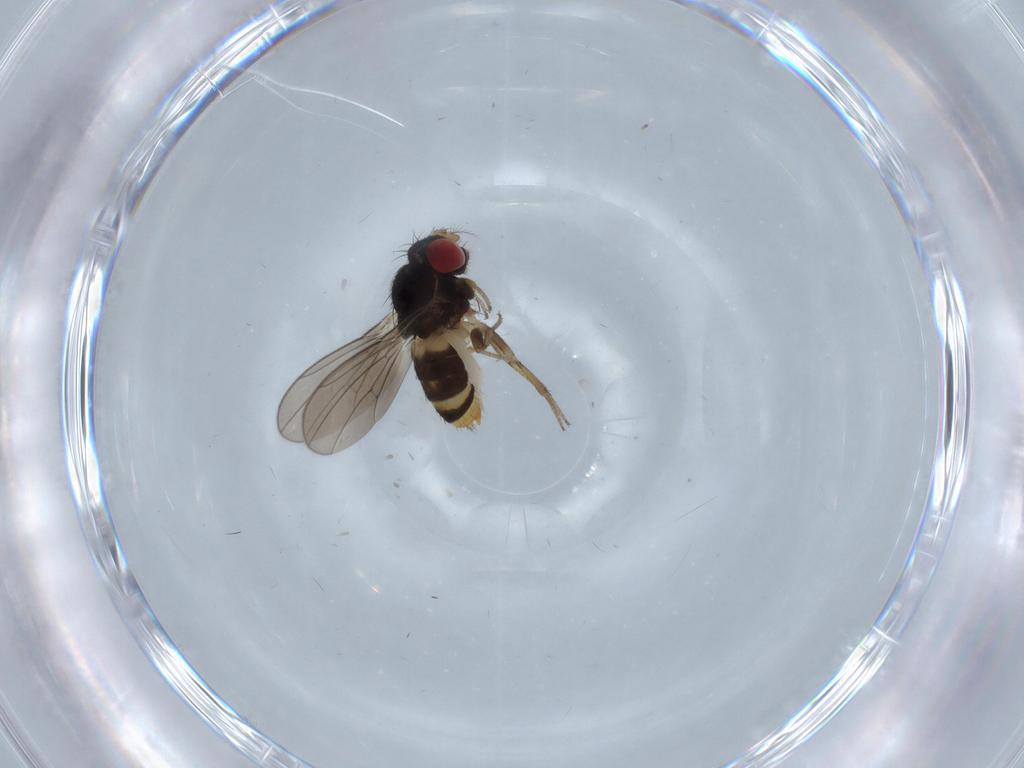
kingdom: Animalia
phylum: Arthropoda
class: Insecta
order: Diptera
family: Drosophilidae
